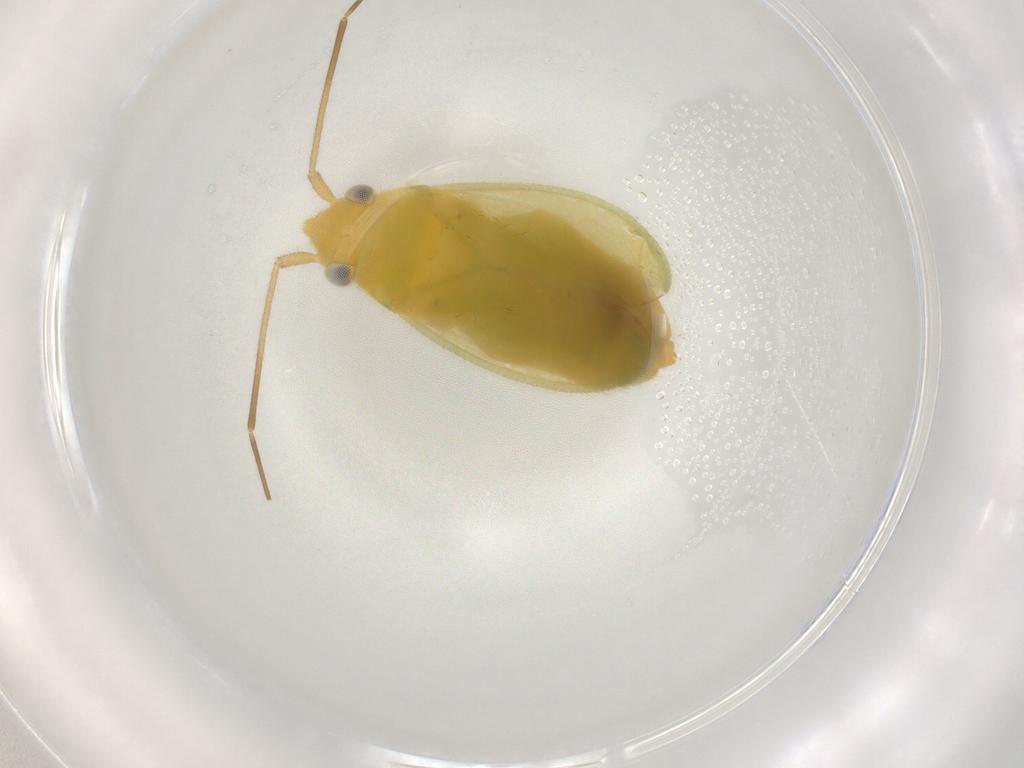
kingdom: Animalia
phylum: Arthropoda
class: Insecta
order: Hemiptera
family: Miridae
